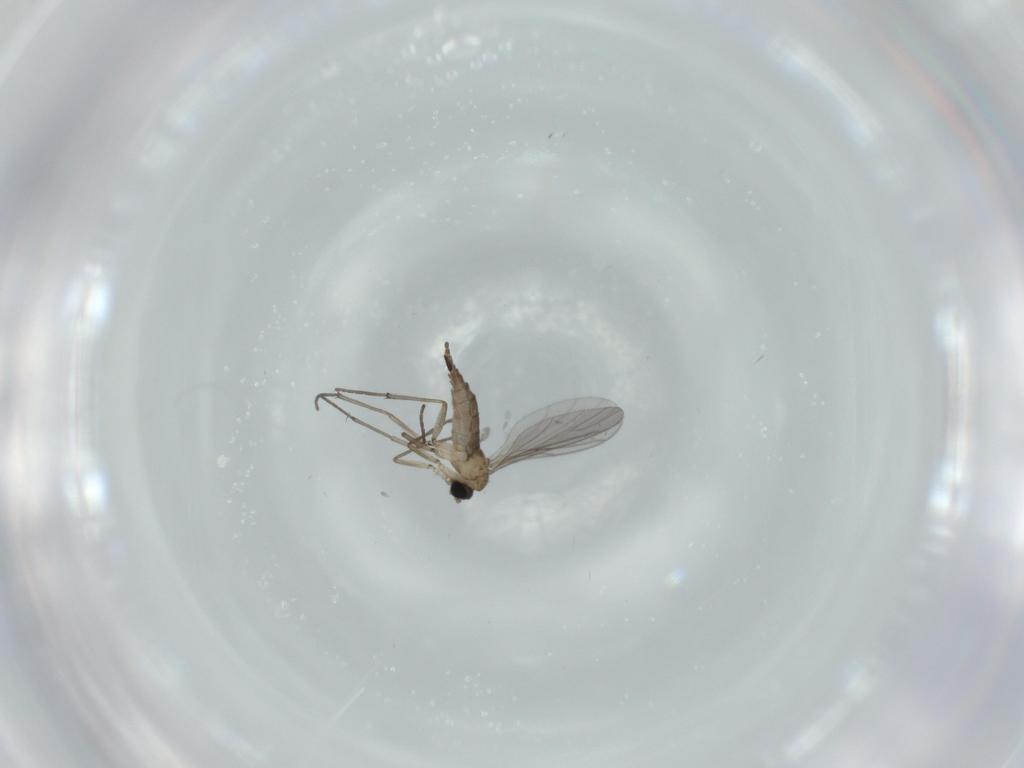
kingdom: Animalia
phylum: Arthropoda
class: Insecta
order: Diptera
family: Sciaridae
